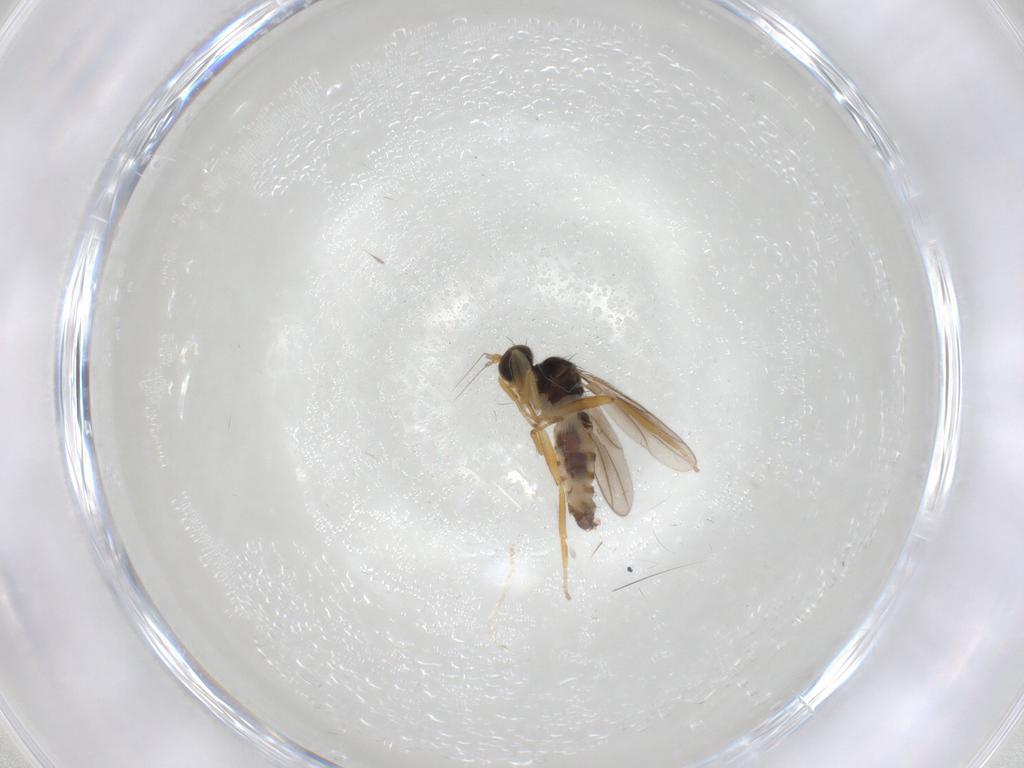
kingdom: Animalia
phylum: Arthropoda
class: Insecta
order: Diptera
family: Hybotidae
